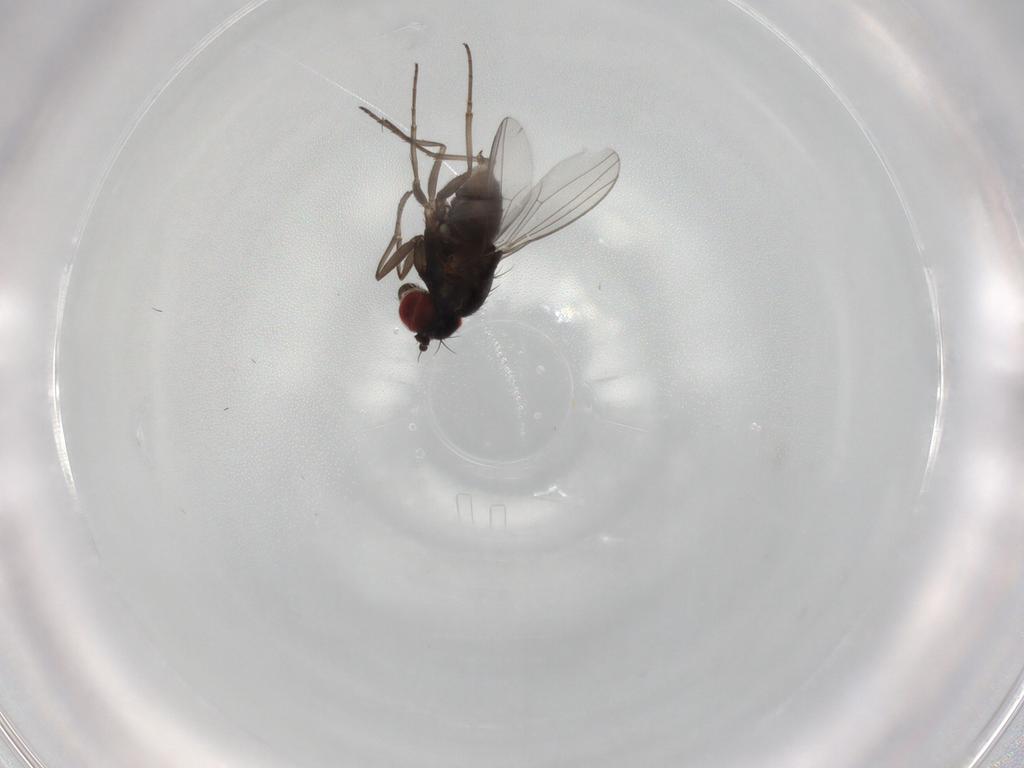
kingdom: Animalia
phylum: Arthropoda
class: Insecta
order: Diptera
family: Dolichopodidae
